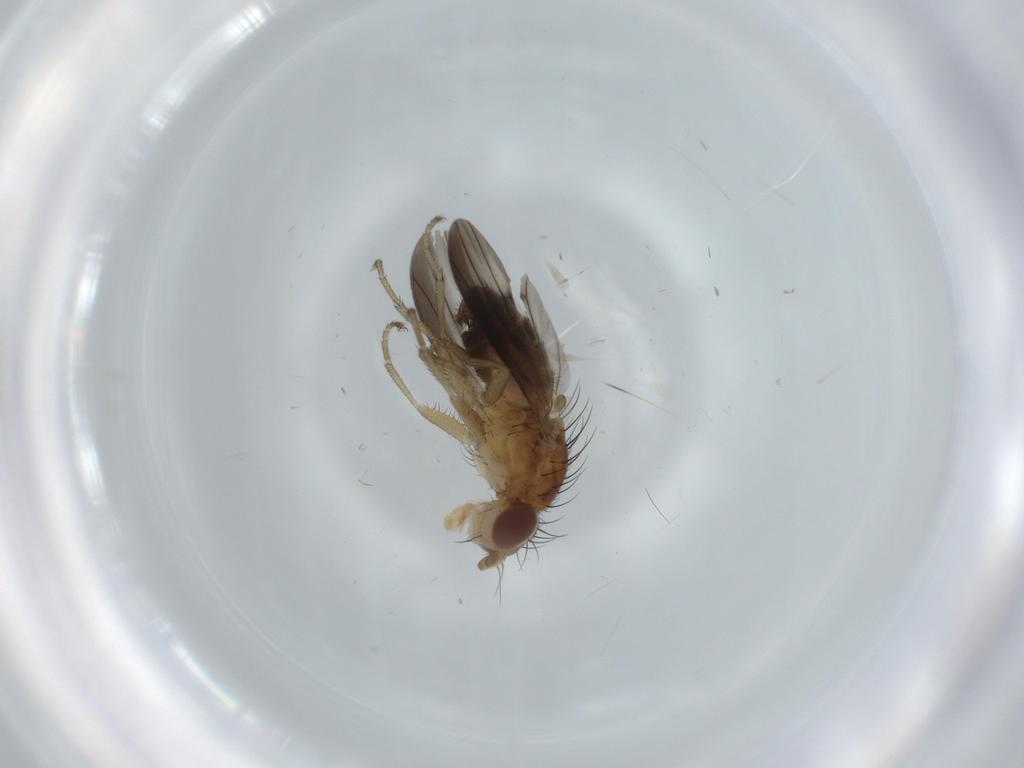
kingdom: Animalia
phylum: Arthropoda
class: Insecta
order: Diptera
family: Heleomyzidae
